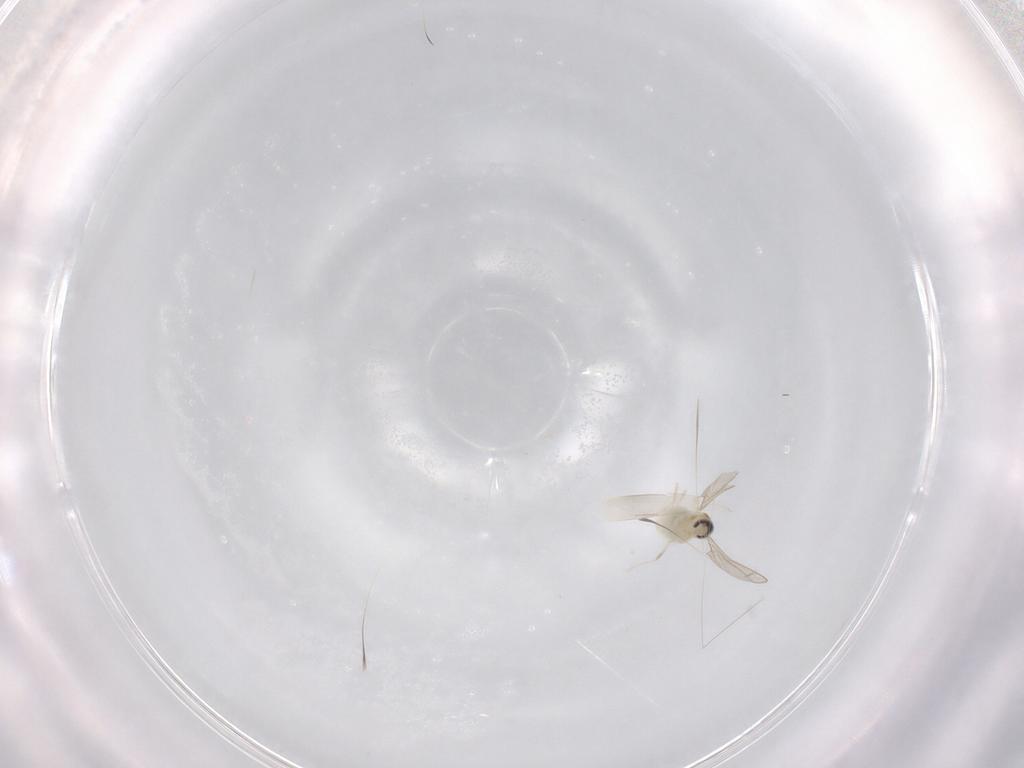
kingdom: Animalia
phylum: Arthropoda
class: Insecta
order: Diptera
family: Cecidomyiidae
